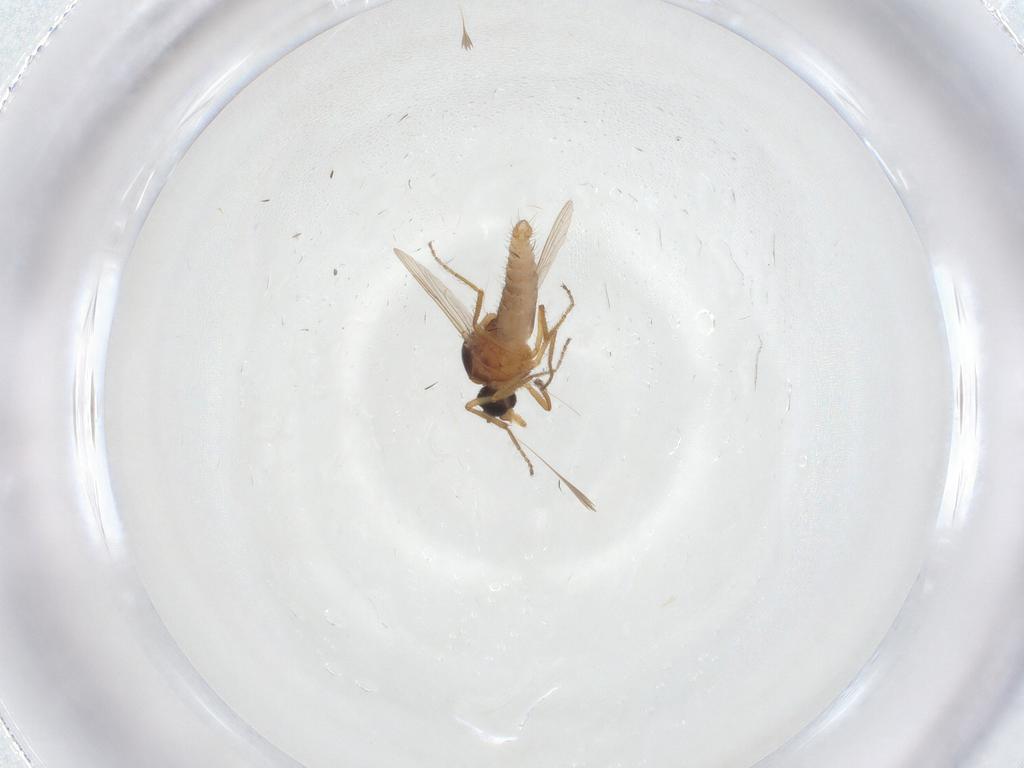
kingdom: Animalia
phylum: Arthropoda
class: Insecta
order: Diptera
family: Ceratopogonidae
